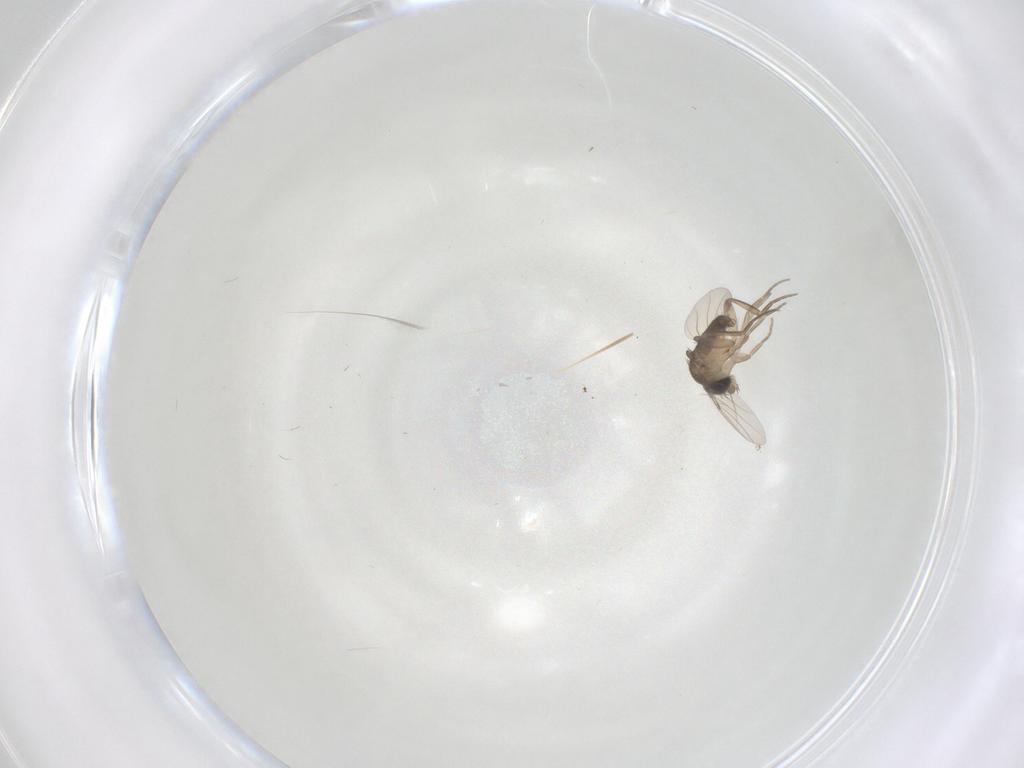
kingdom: Animalia
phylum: Arthropoda
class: Insecta
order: Diptera
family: Phoridae
